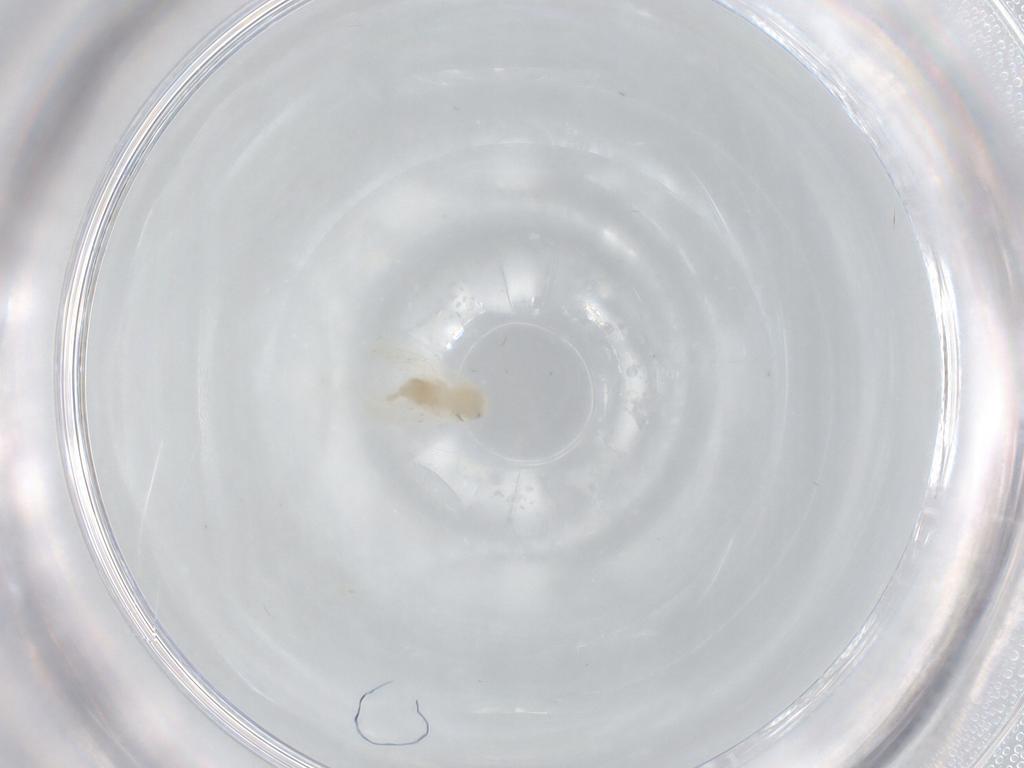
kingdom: Animalia
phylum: Arthropoda
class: Insecta
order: Hemiptera
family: Aleyrodidae
